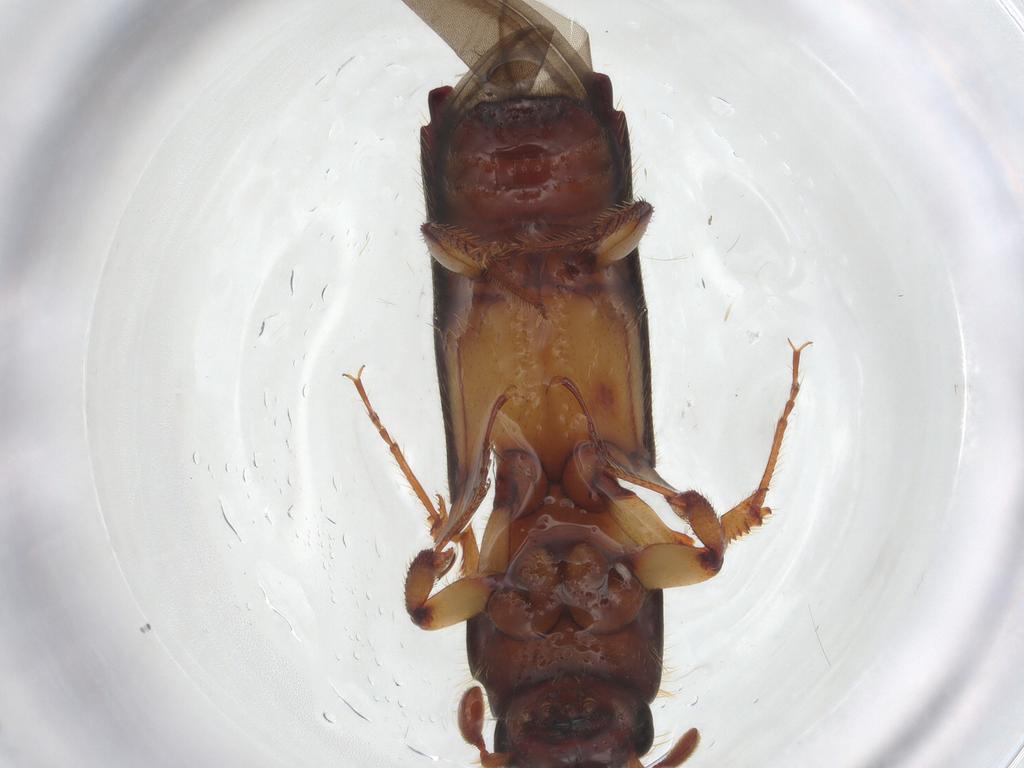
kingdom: Animalia
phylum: Arthropoda
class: Insecta
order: Coleoptera
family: Curculionidae
